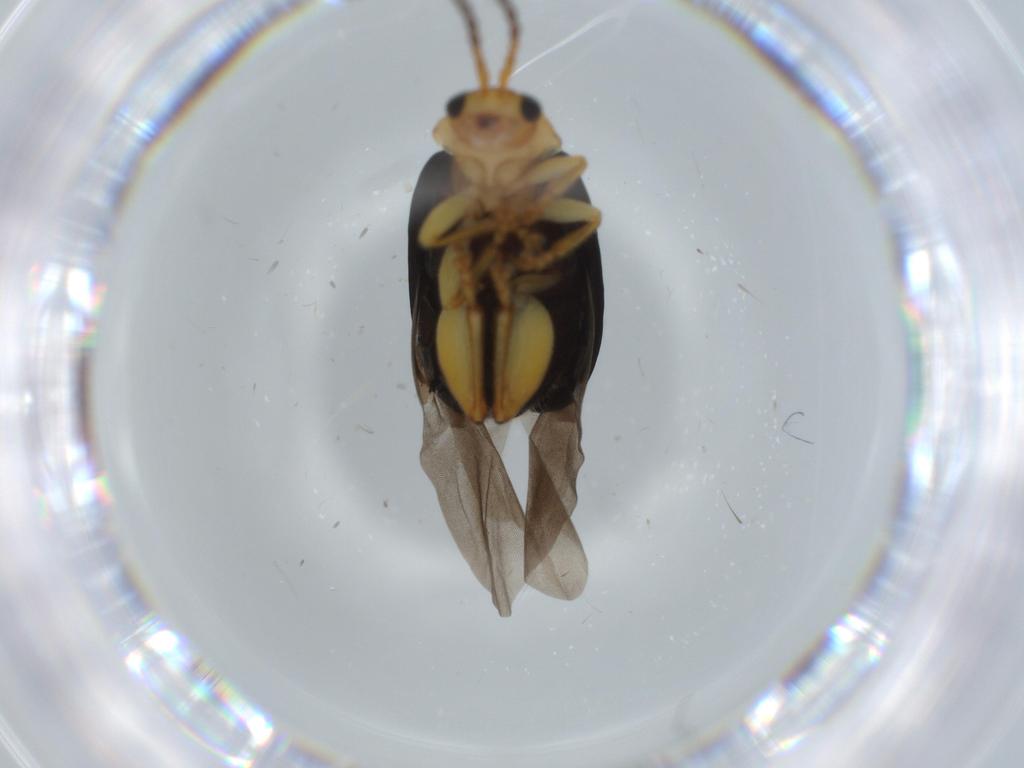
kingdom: Animalia
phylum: Arthropoda
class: Insecta
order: Coleoptera
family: Chrysomelidae
